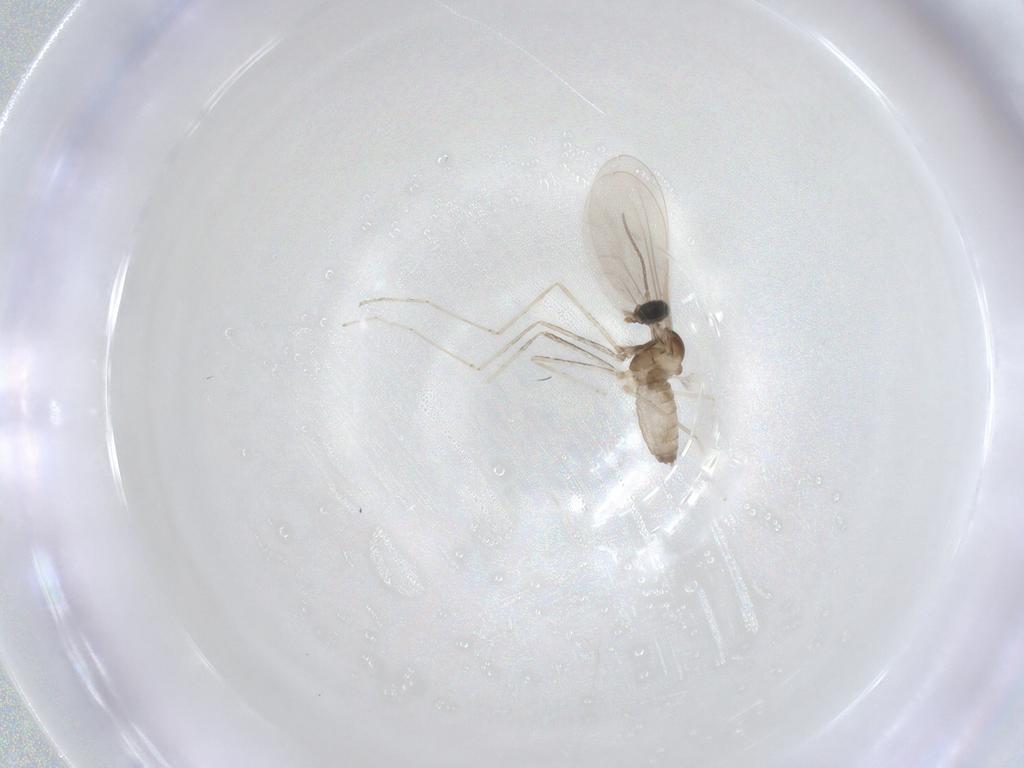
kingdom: Animalia
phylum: Arthropoda
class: Insecta
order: Diptera
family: Cecidomyiidae
